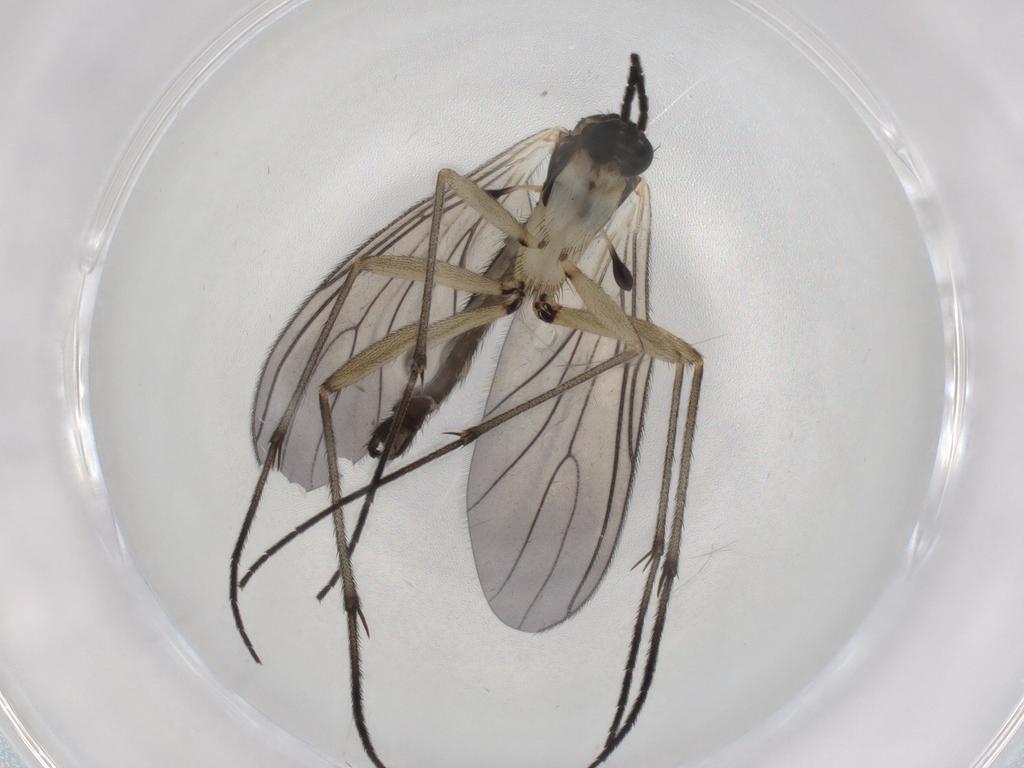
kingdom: Animalia
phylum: Arthropoda
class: Insecta
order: Diptera
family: Sciaridae
